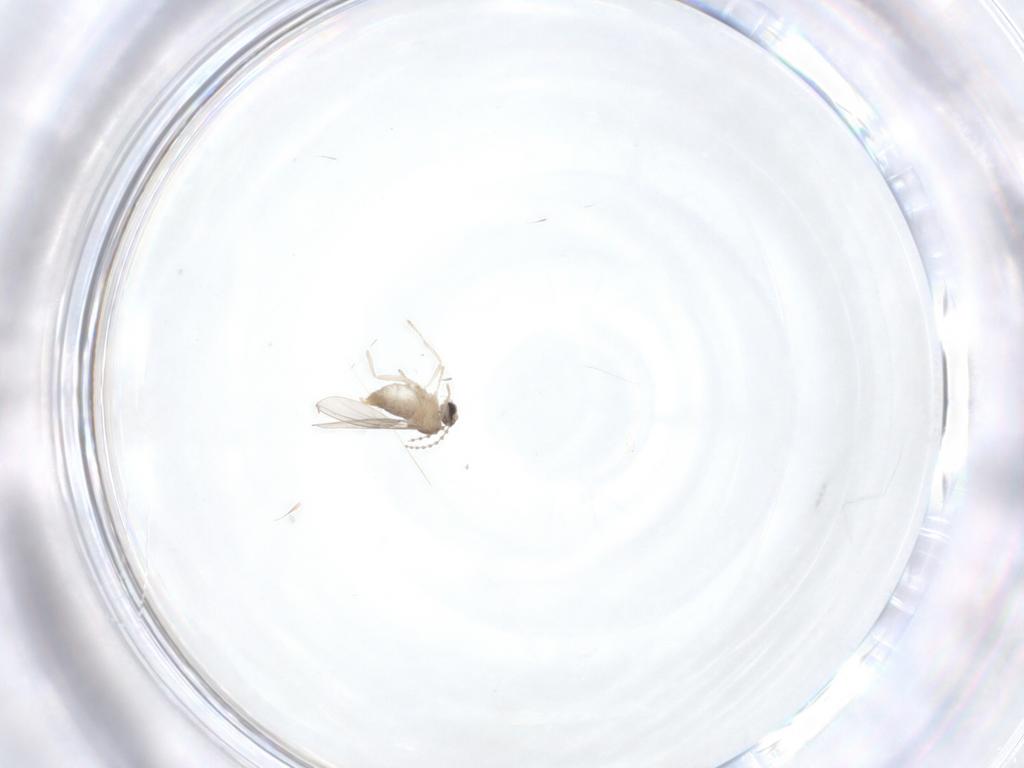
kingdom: Animalia
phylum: Arthropoda
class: Insecta
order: Diptera
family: Cecidomyiidae
